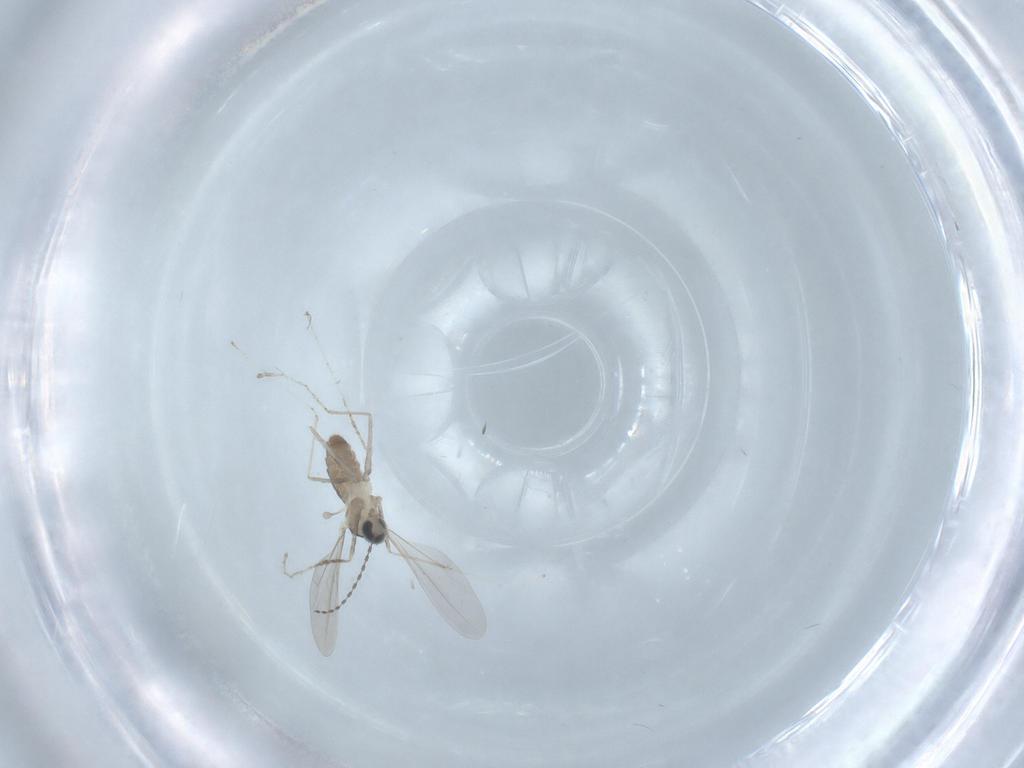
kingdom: Animalia
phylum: Arthropoda
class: Insecta
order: Diptera
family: Cecidomyiidae
